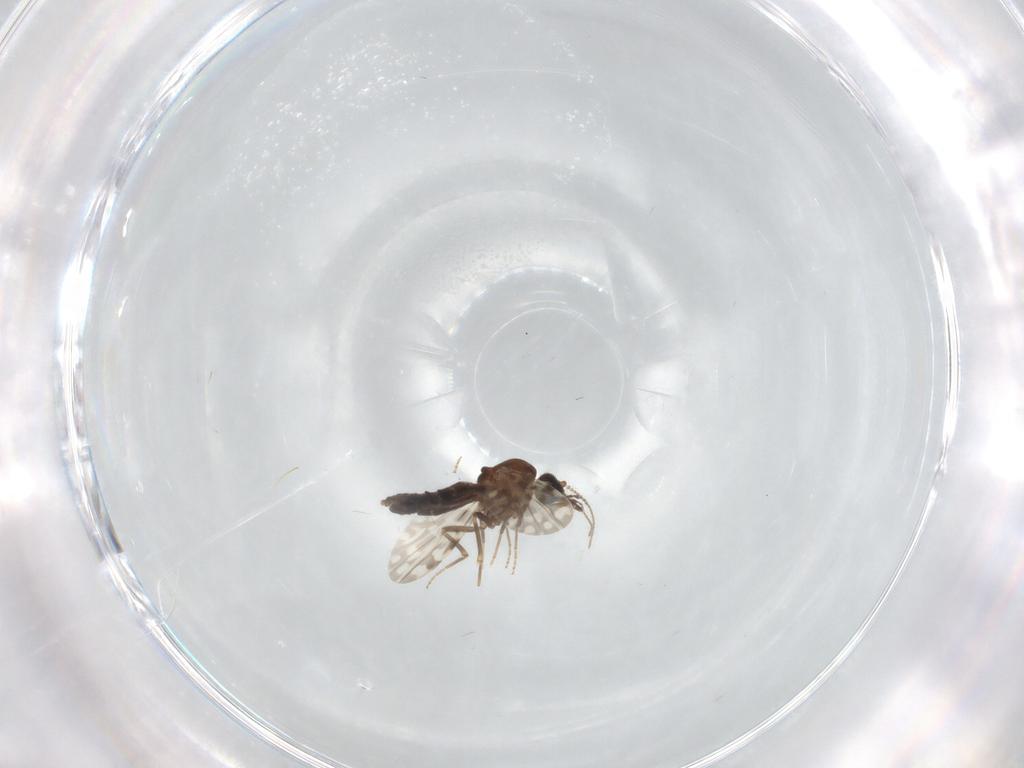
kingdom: Animalia
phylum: Arthropoda
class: Insecta
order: Diptera
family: Ceratopogonidae
